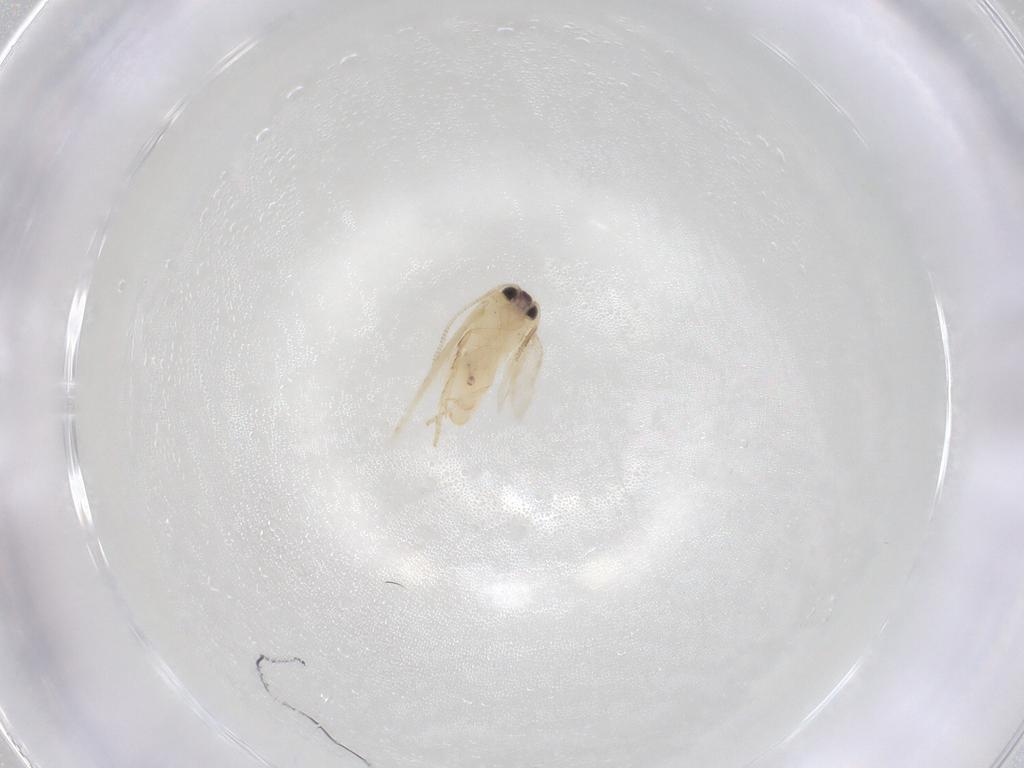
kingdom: Animalia
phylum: Arthropoda
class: Insecta
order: Lepidoptera
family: Nepticulidae
